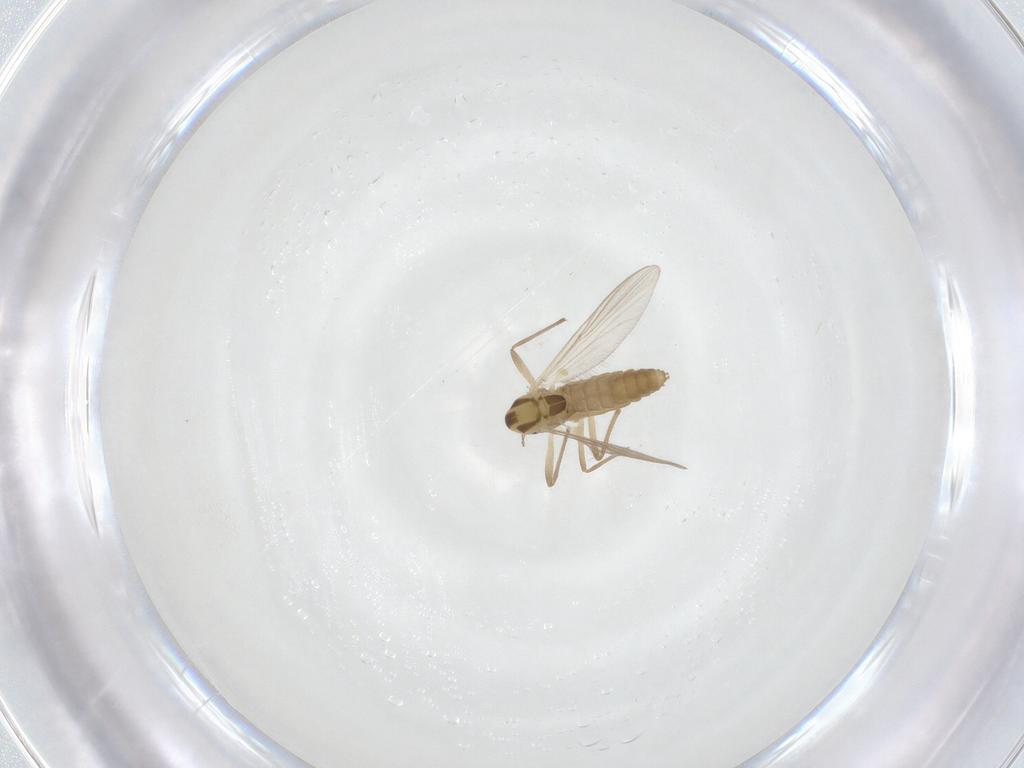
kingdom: Animalia
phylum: Arthropoda
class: Insecta
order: Diptera
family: Chironomidae
